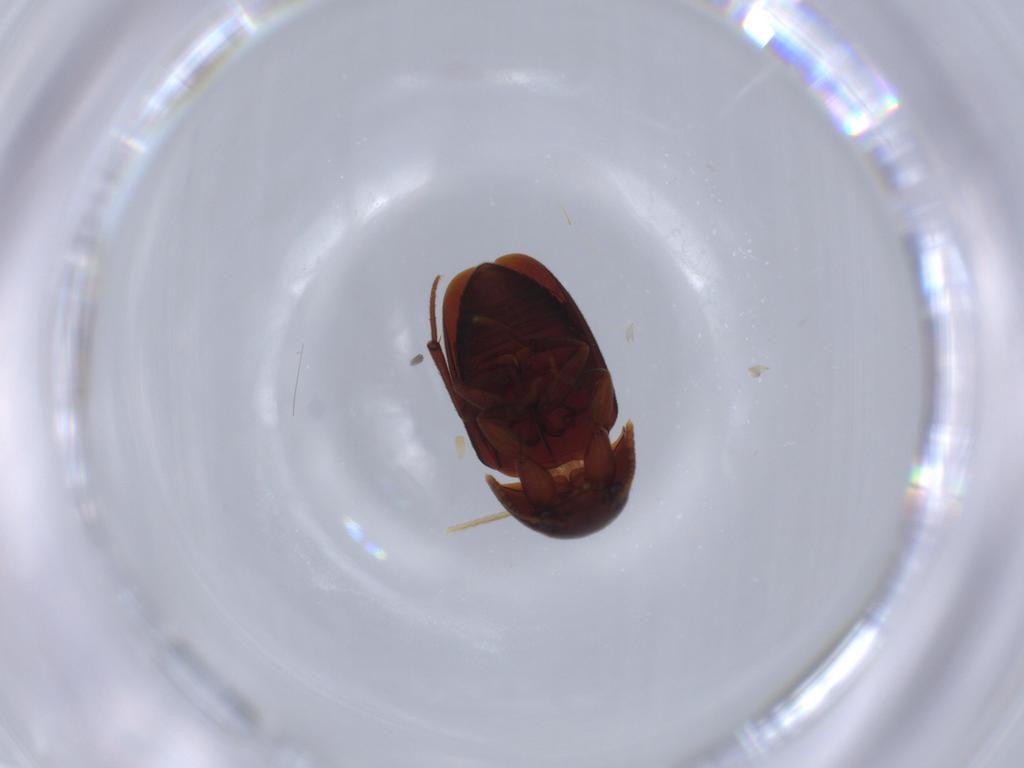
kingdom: Animalia
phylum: Arthropoda
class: Insecta
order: Coleoptera
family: Leiodidae
